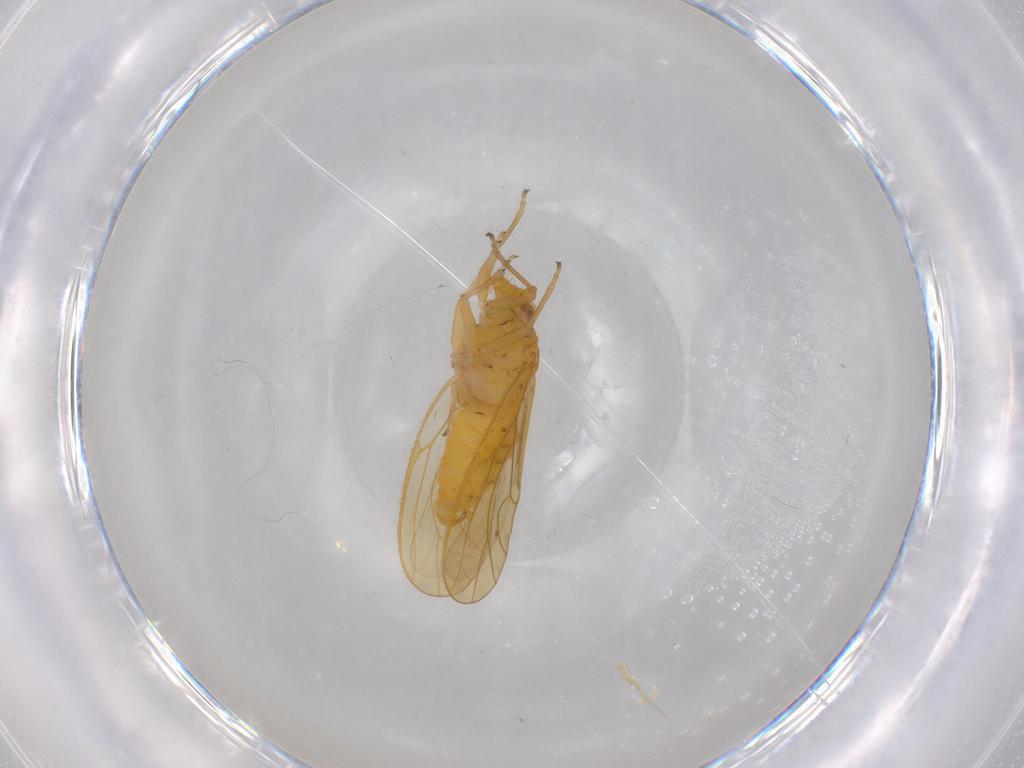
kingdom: Animalia
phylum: Arthropoda
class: Insecta
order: Hemiptera
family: Psyllidae
